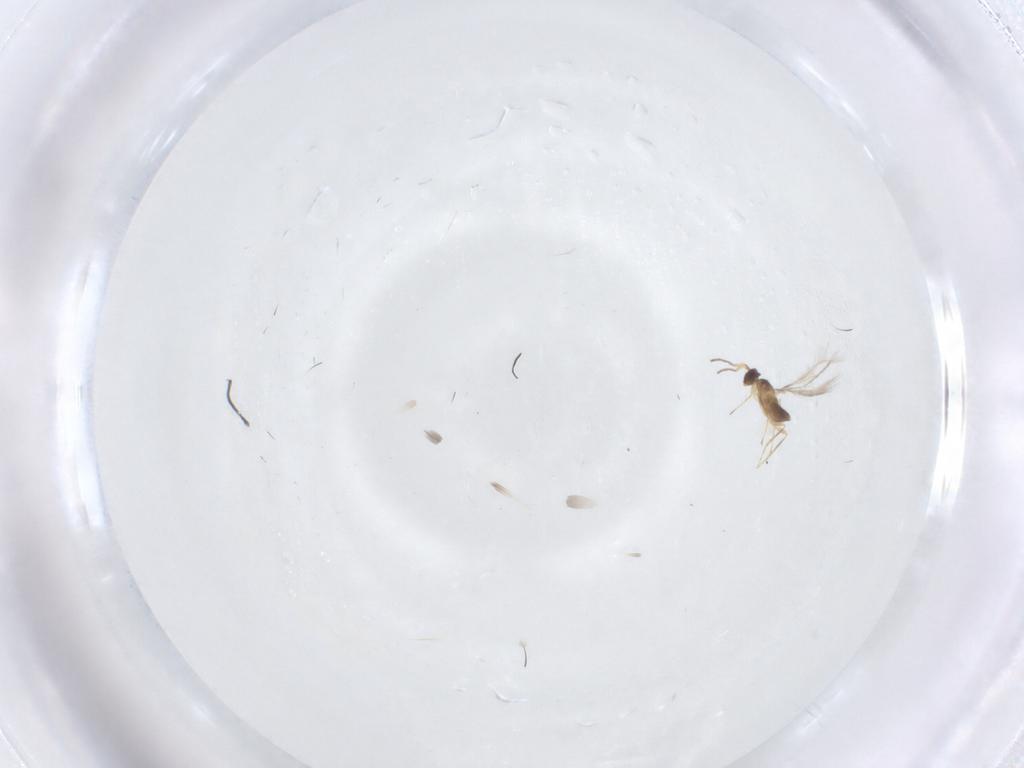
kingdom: Animalia
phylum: Arthropoda
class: Insecta
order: Hymenoptera
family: Mymaridae
